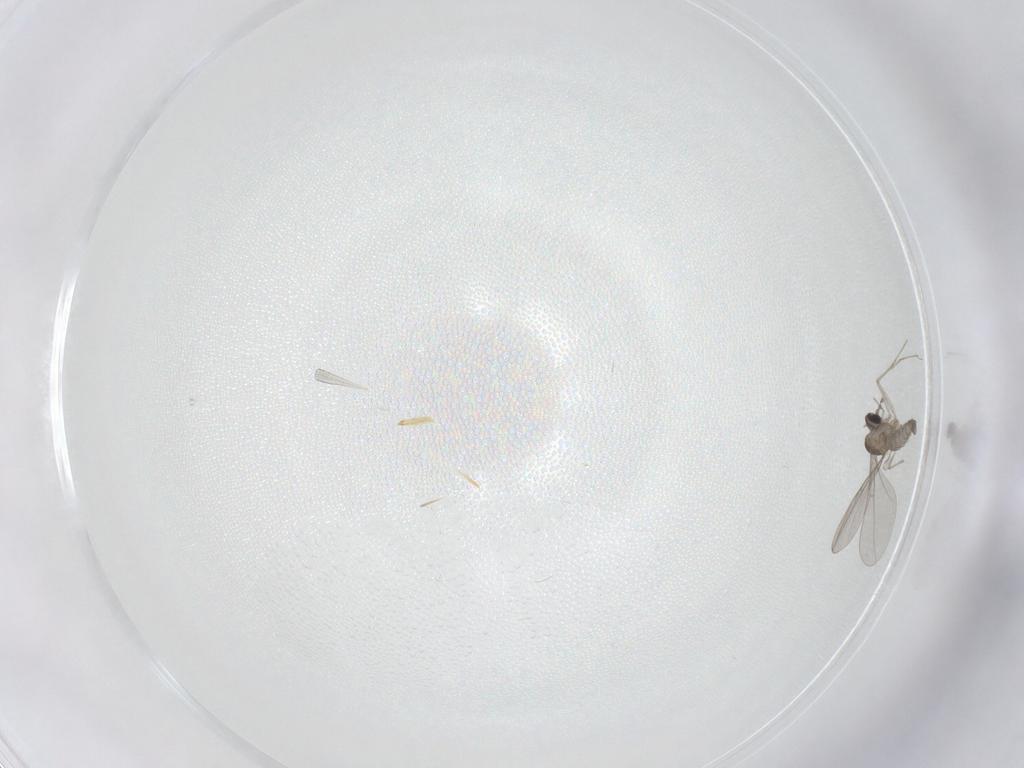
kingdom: Animalia
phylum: Arthropoda
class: Insecta
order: Diptera
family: Cecidomyiidae
